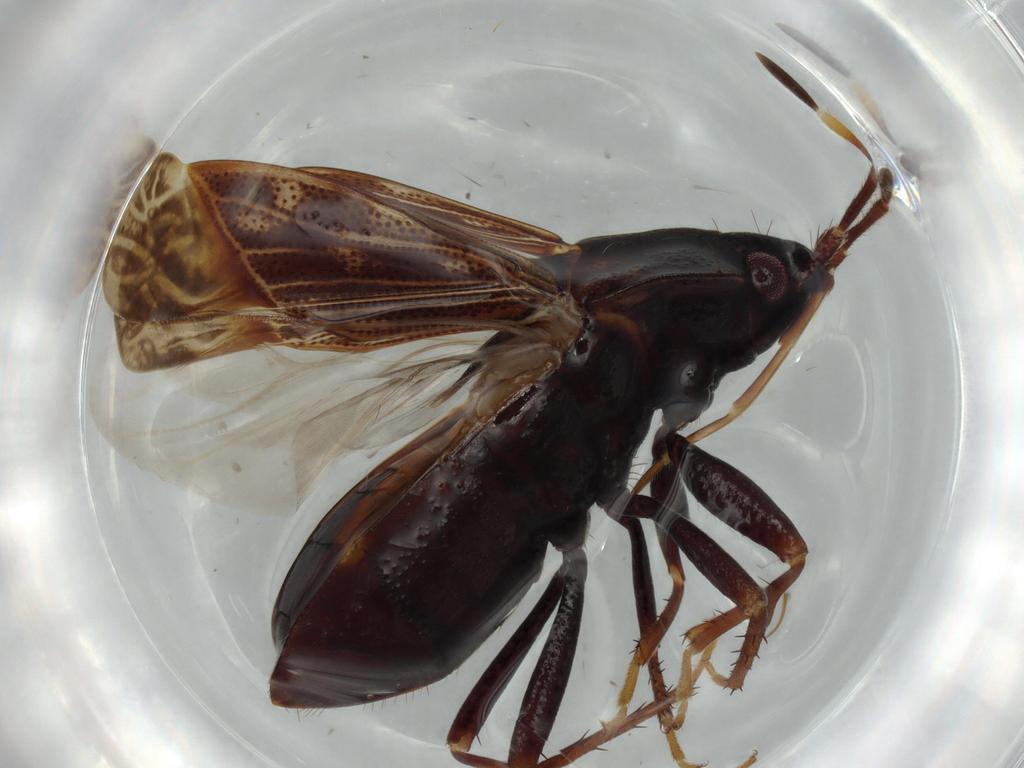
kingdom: Animalia
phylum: Arthropoda
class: Insecta
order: Hemiptera
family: Rhyparochromidae
